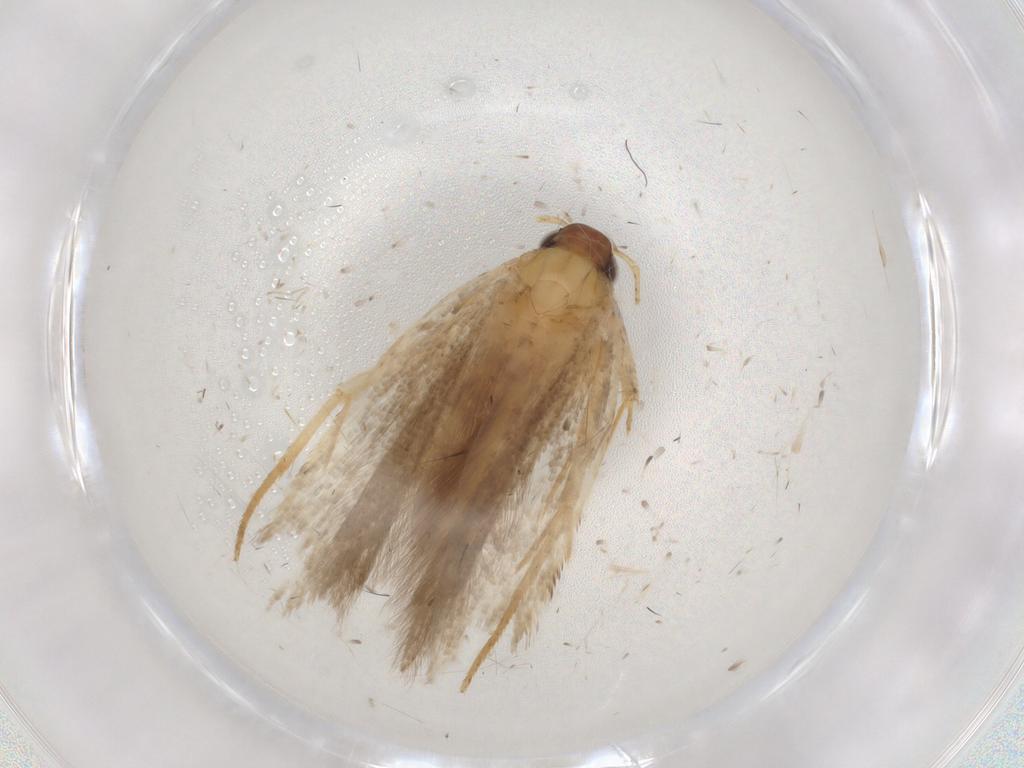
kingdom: Animalia
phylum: Arthropoda
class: Insecta
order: Lepidoptera
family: Gelechiidae
